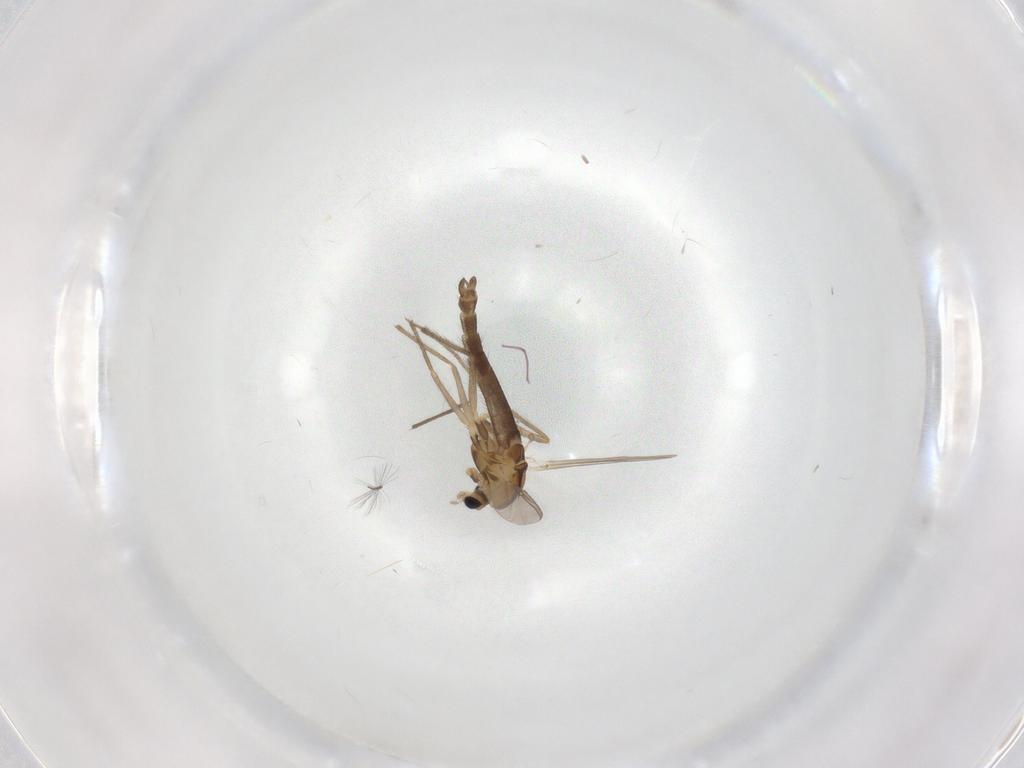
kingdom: Animalia
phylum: Arthropoda
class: Insecta
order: Diptera
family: Chironomidae
